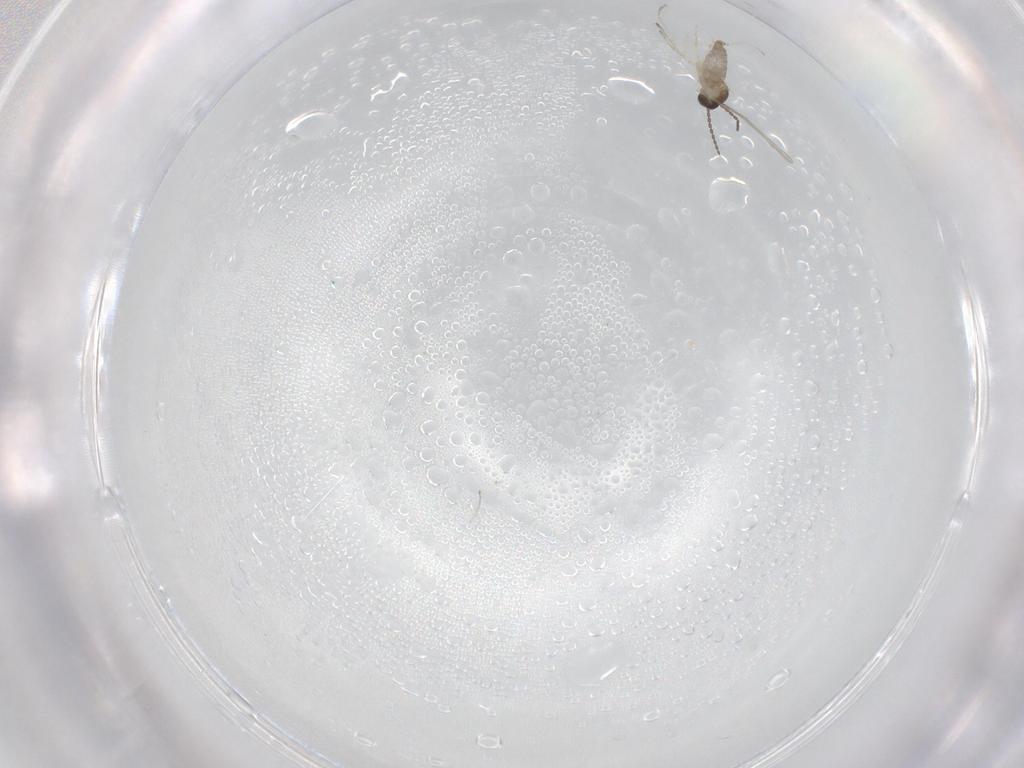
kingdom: Animalia
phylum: Arthropoda
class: Insecta
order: Diptera
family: Cecidomyiidae
